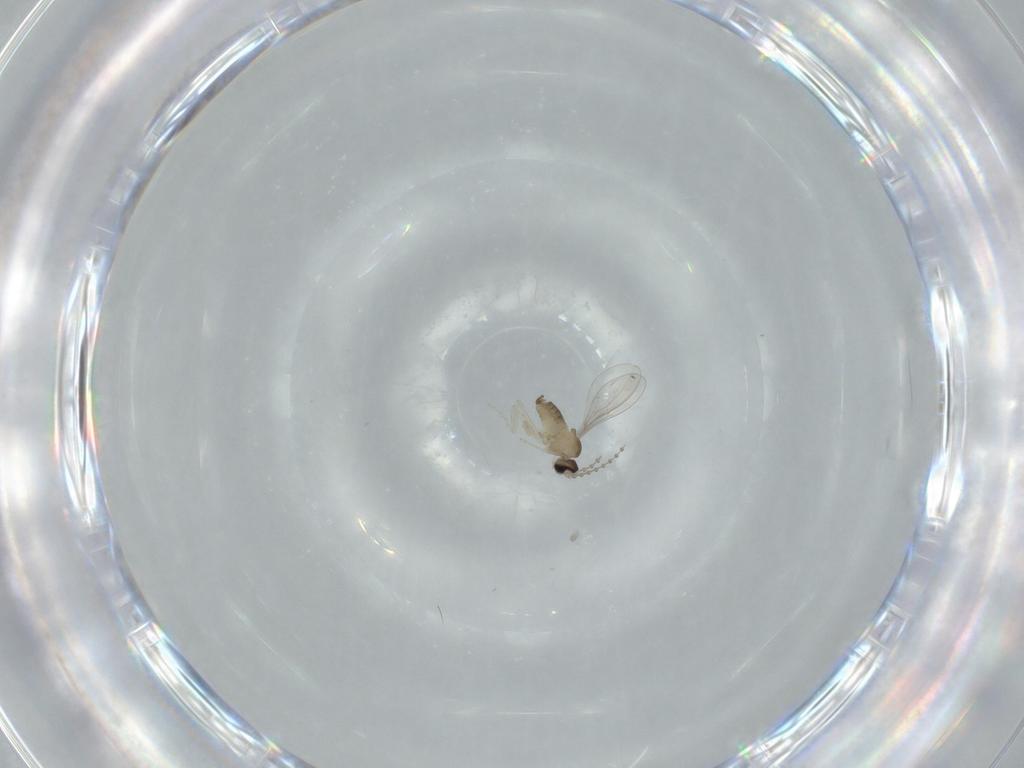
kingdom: Animalia
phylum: Arthropoda
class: Insecta
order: Diptera
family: Cecidomyiidae
